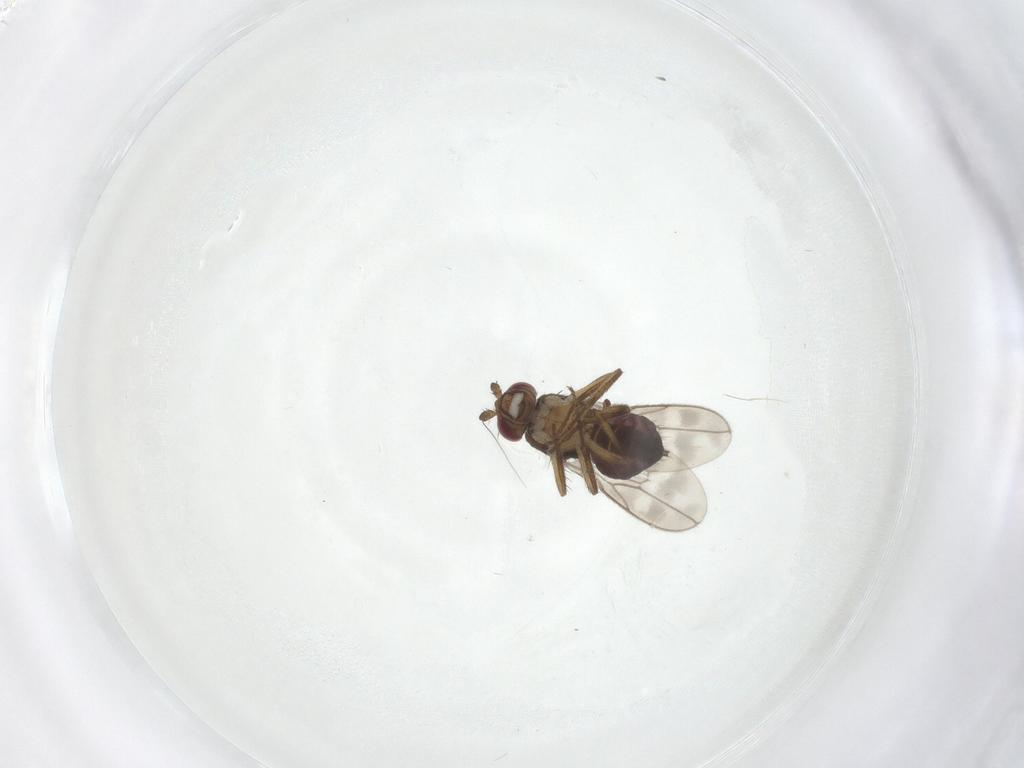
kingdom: Animalia
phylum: Arthropoda
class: Insecta
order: Diptera
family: Sphaeroceridae
